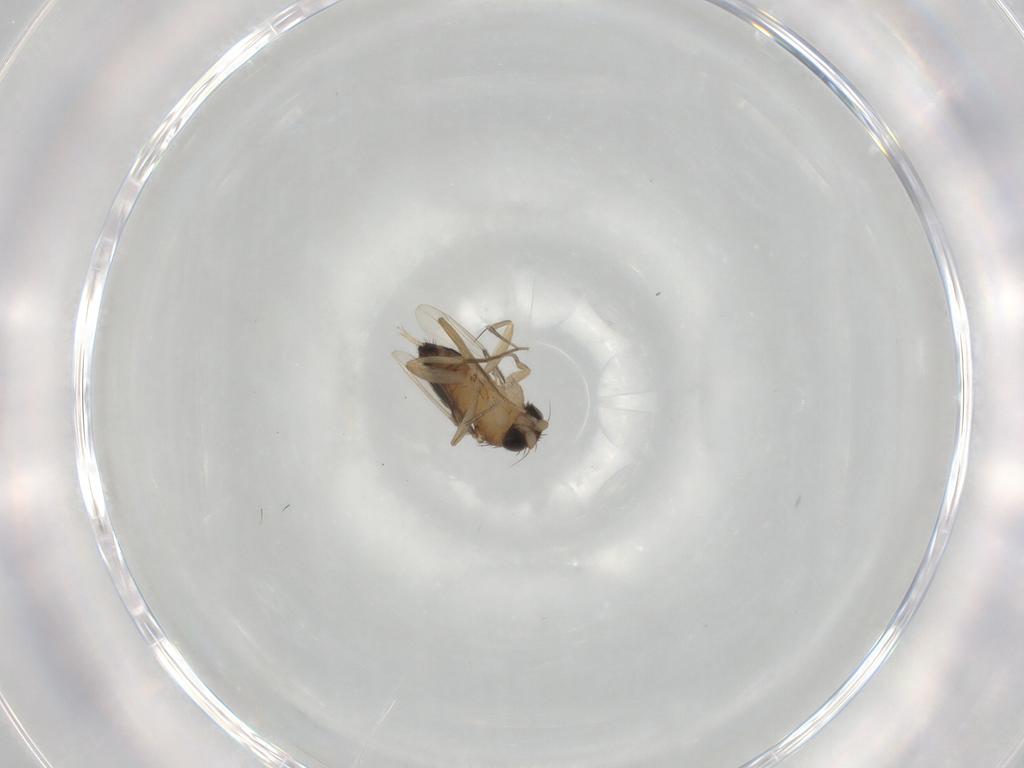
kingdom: Animalia
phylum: Arthropoda
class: Insecta
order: Diptera
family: Phoridae
